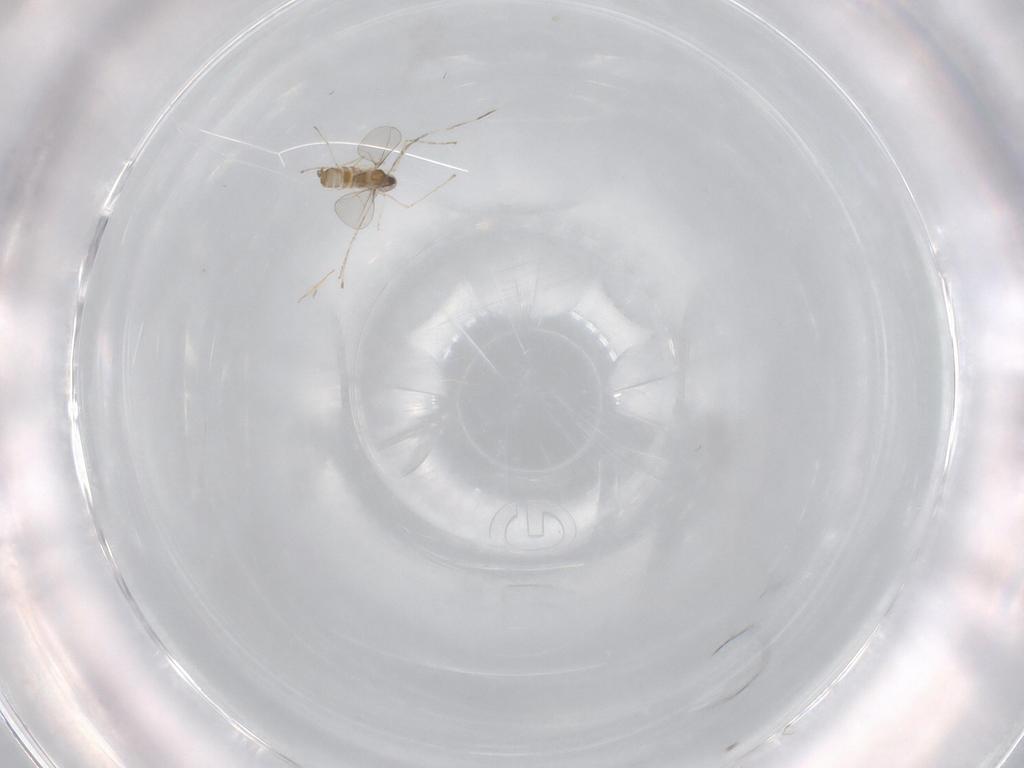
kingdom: Animalia
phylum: Arthropoda
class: Insecta
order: Diptera
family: Cecidomyiidae
